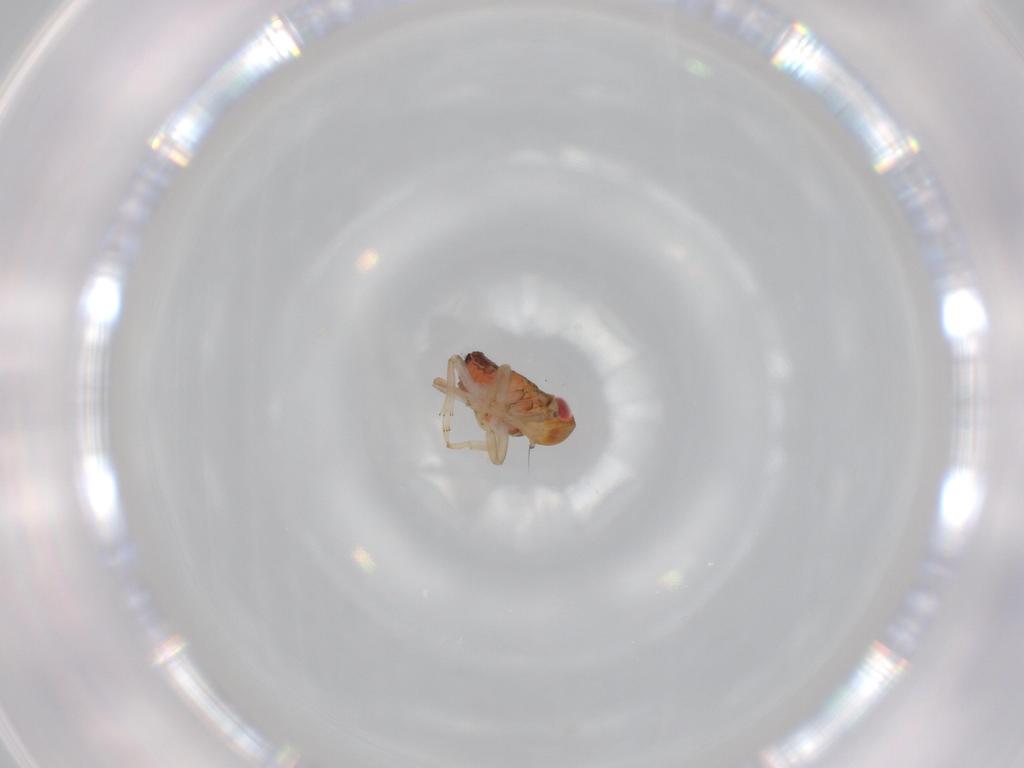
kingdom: Animalia
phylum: Arthropoda
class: Insecta
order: Hemiptera
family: Issidae
